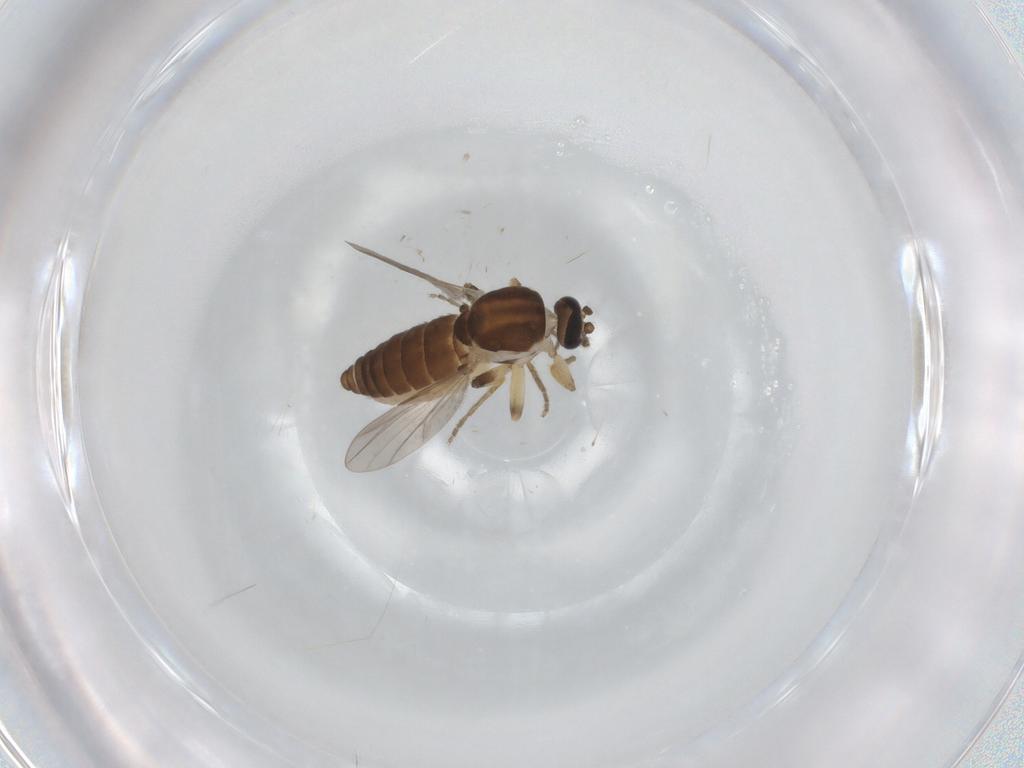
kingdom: Animalia
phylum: Arthropoda
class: Insecta
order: Diptera
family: Ceratopogonidae
